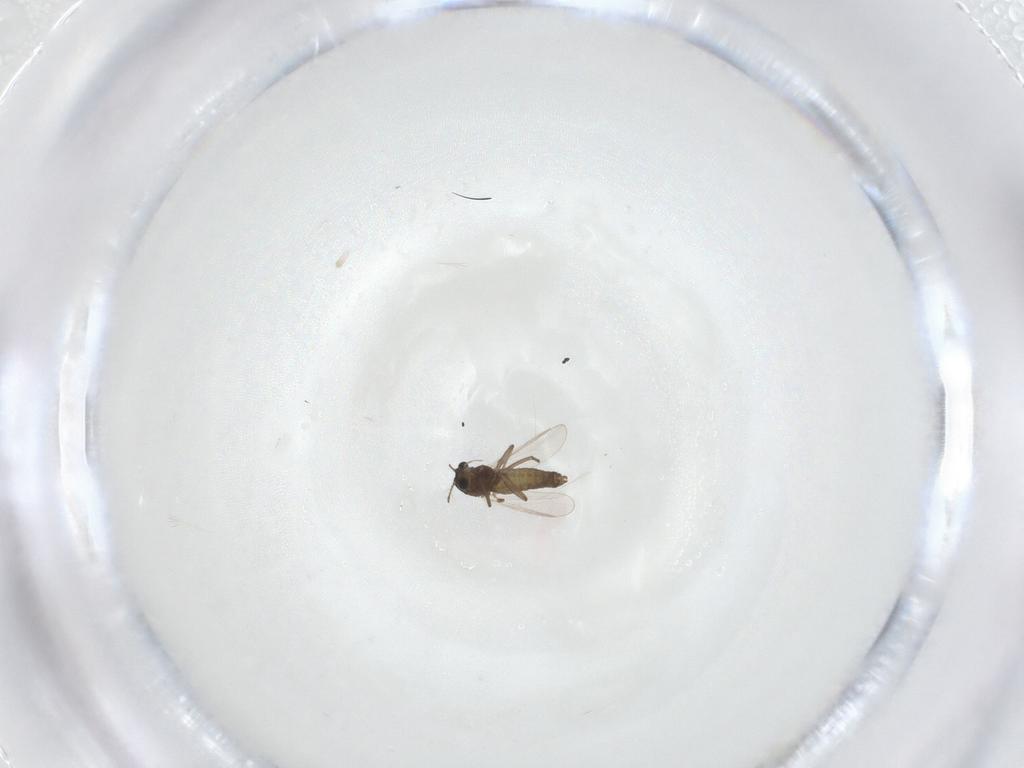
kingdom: Animalia
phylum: Arthropoda
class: Insecta
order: Diptera
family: Chironomidae
